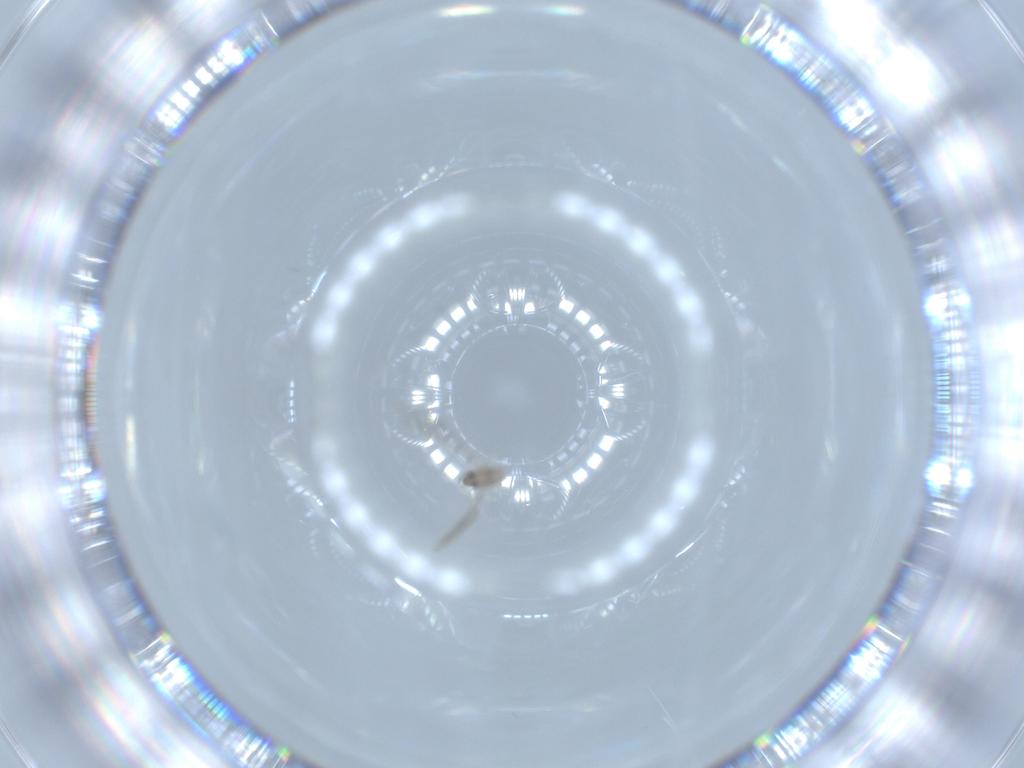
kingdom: Animalia
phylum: Arthropoda
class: Insecta
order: Diptera
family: Cecidomyiidae
